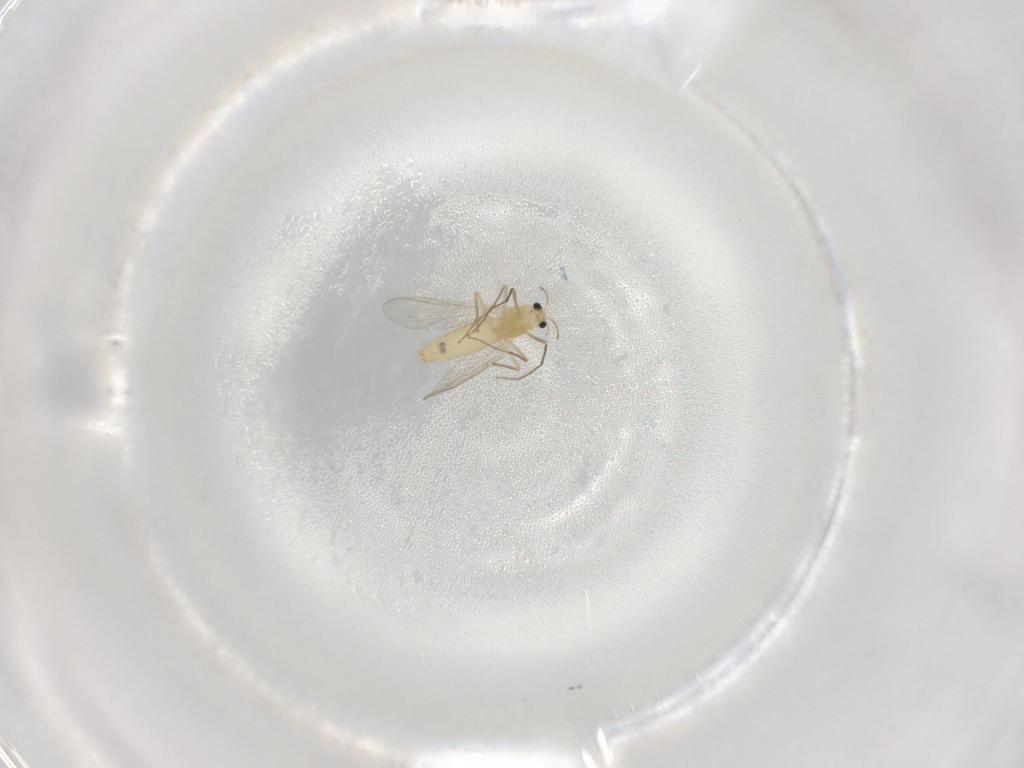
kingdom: Animalia
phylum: Arthropoda
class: Insecta
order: Diptera
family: Chironomidae
